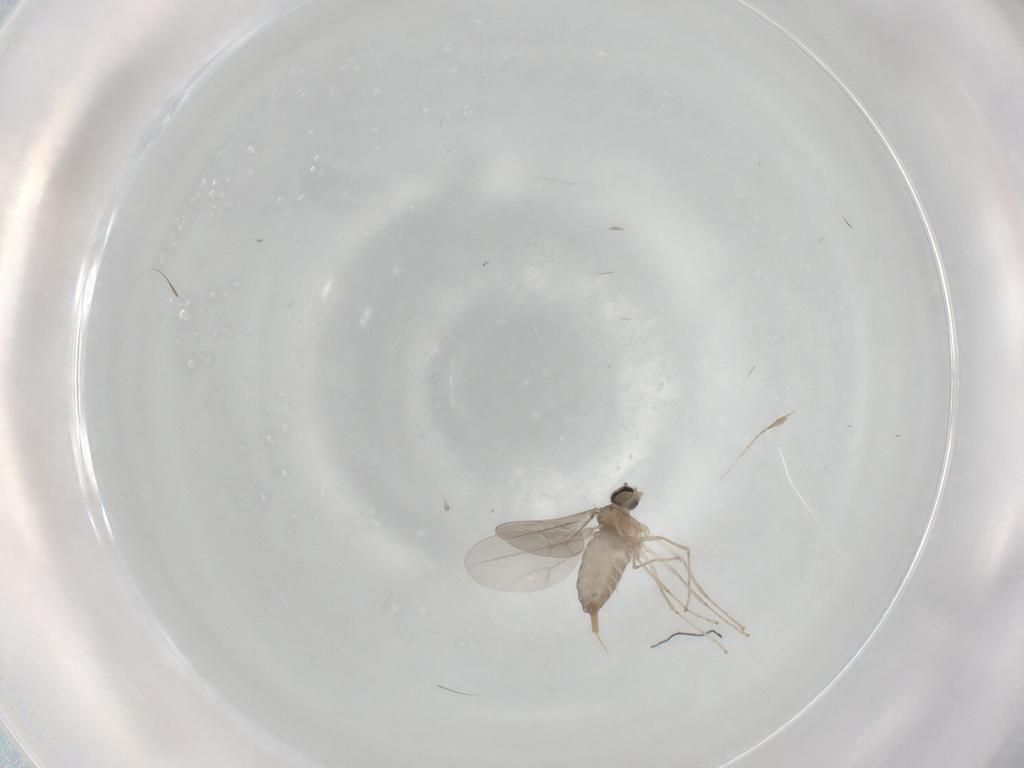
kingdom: Animalia
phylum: Arthropoda
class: Insecta
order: Diptera
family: Cecidomyiidae
